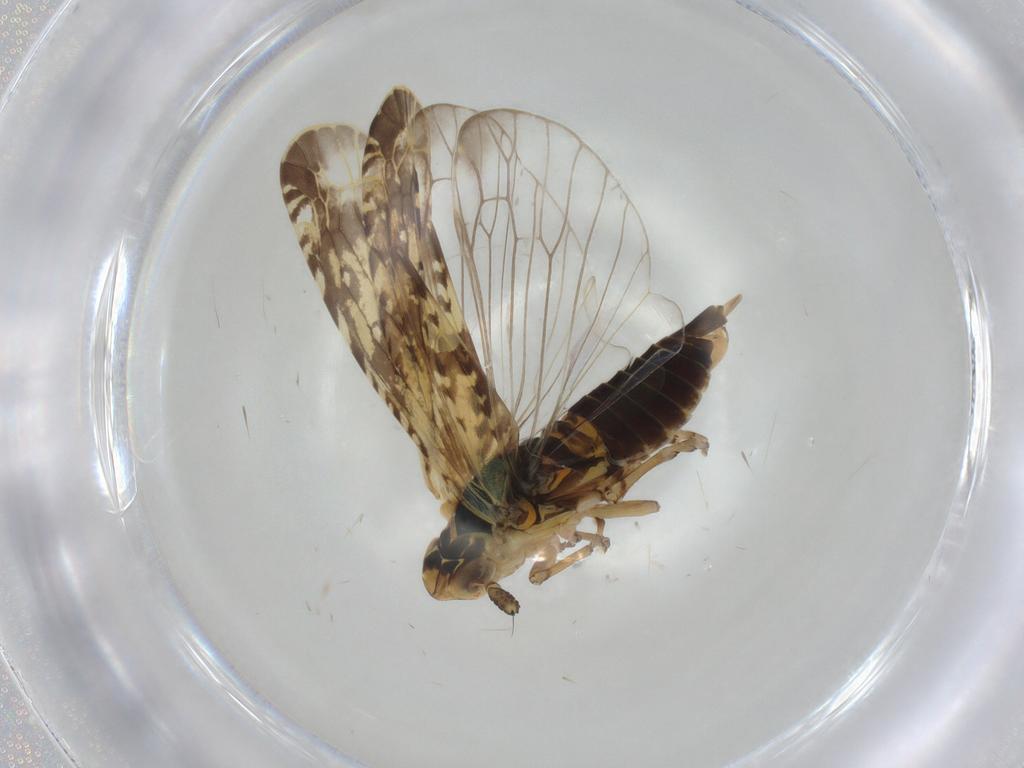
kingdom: Animalia
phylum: Arthropoda
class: Insecta
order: Hemiptera
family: Achilidae
